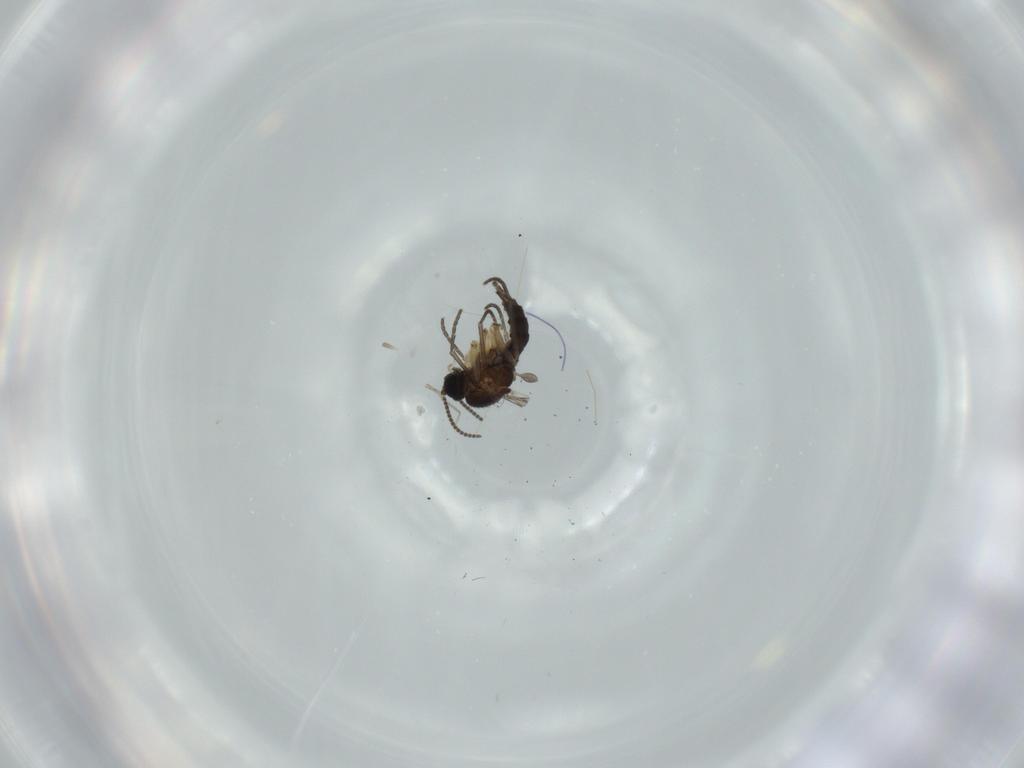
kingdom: Animalia
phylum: Arthropoda
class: Insecta
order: Diptera
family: Sciaridae
